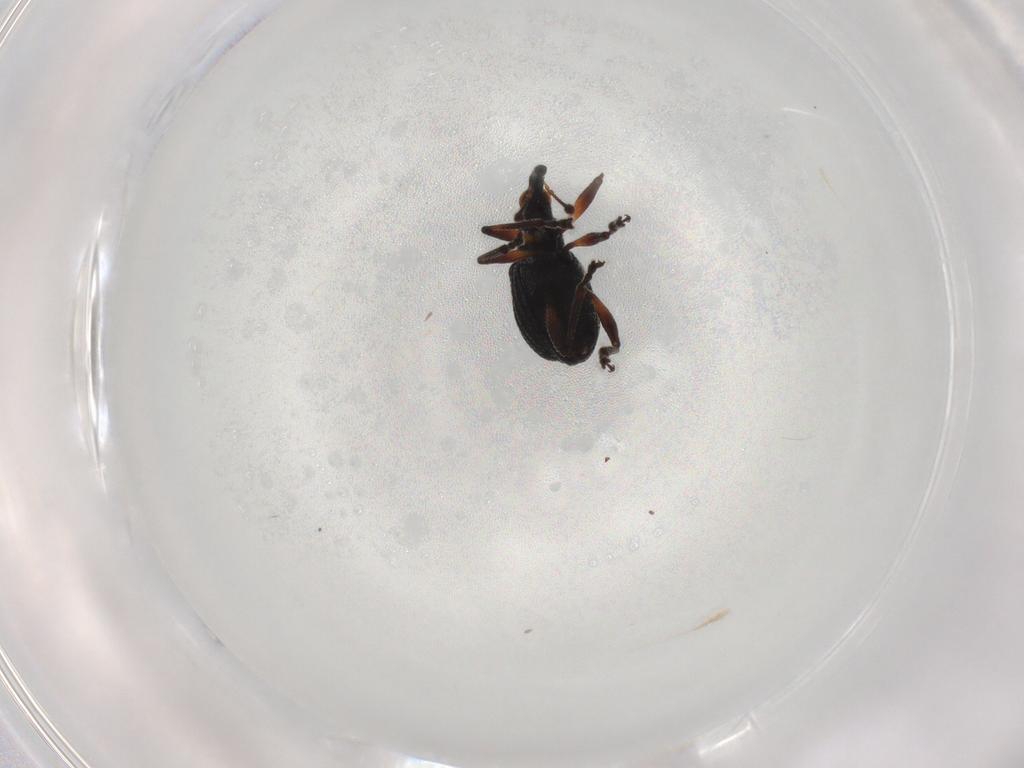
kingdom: Animalia
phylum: Arthropoda
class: Insecta
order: Coleoptera
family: Brentidae
